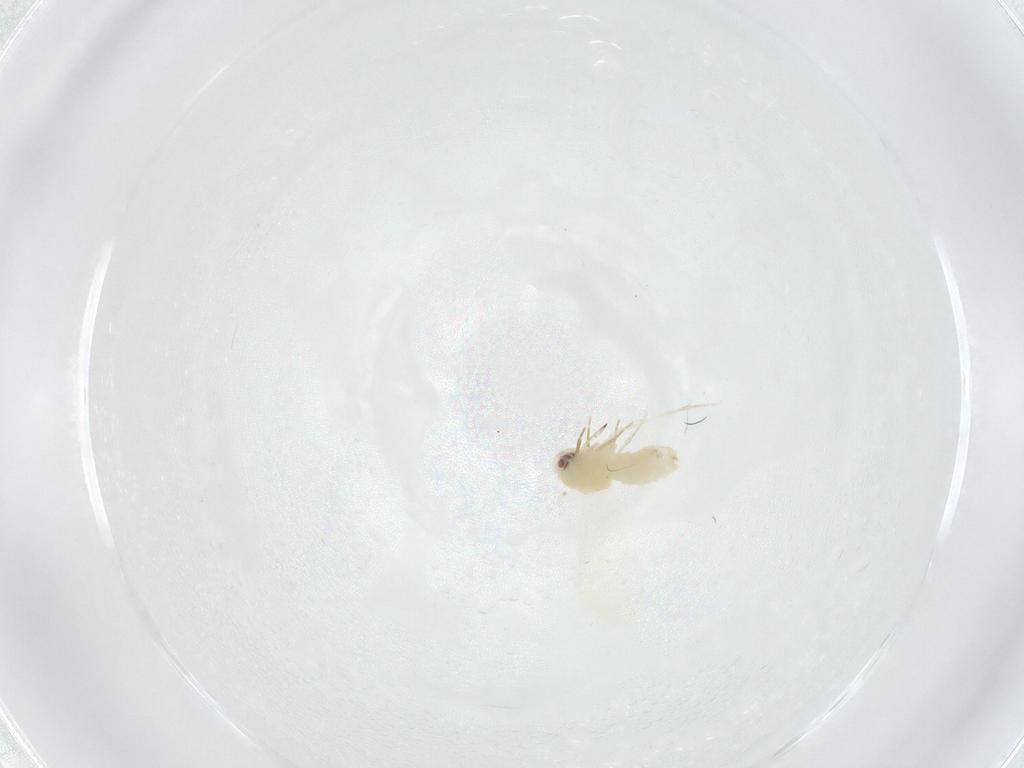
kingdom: Animalia
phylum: Arthropoda
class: Insecta
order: Hemiptera
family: Aleyrodidae
